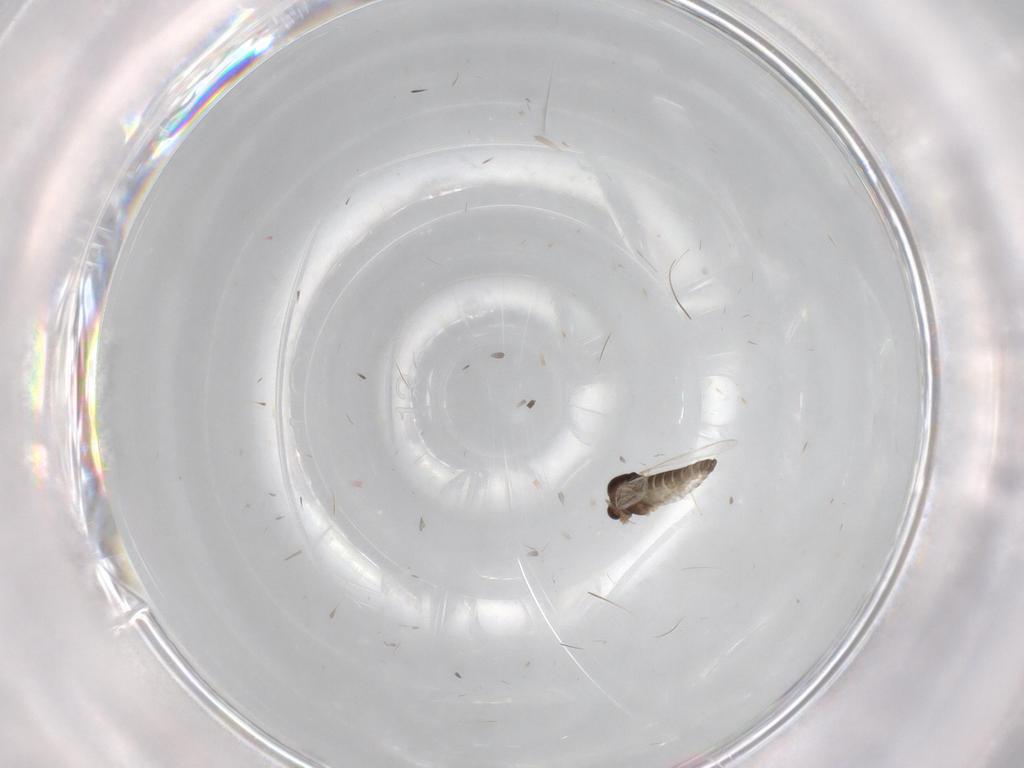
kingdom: Animalia
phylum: Arthropoda
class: Insecta
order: Diptera
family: Chironomidae
